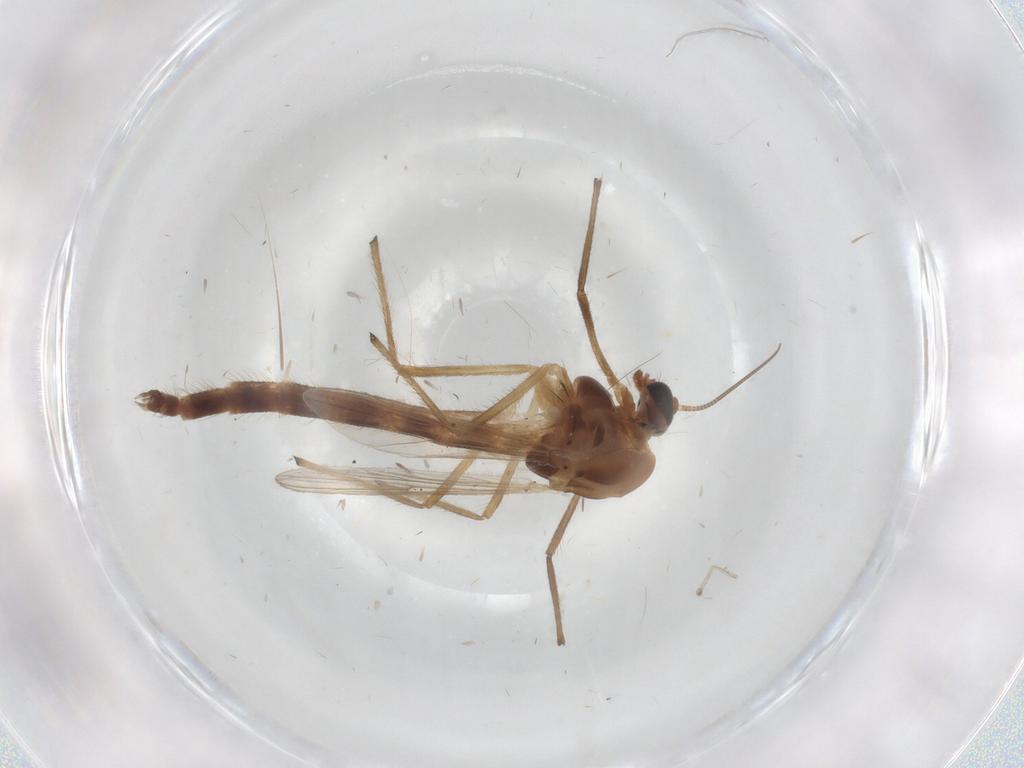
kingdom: Animalia
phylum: Arthropoda
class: Insecta
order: Diptera
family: Chironomidae
